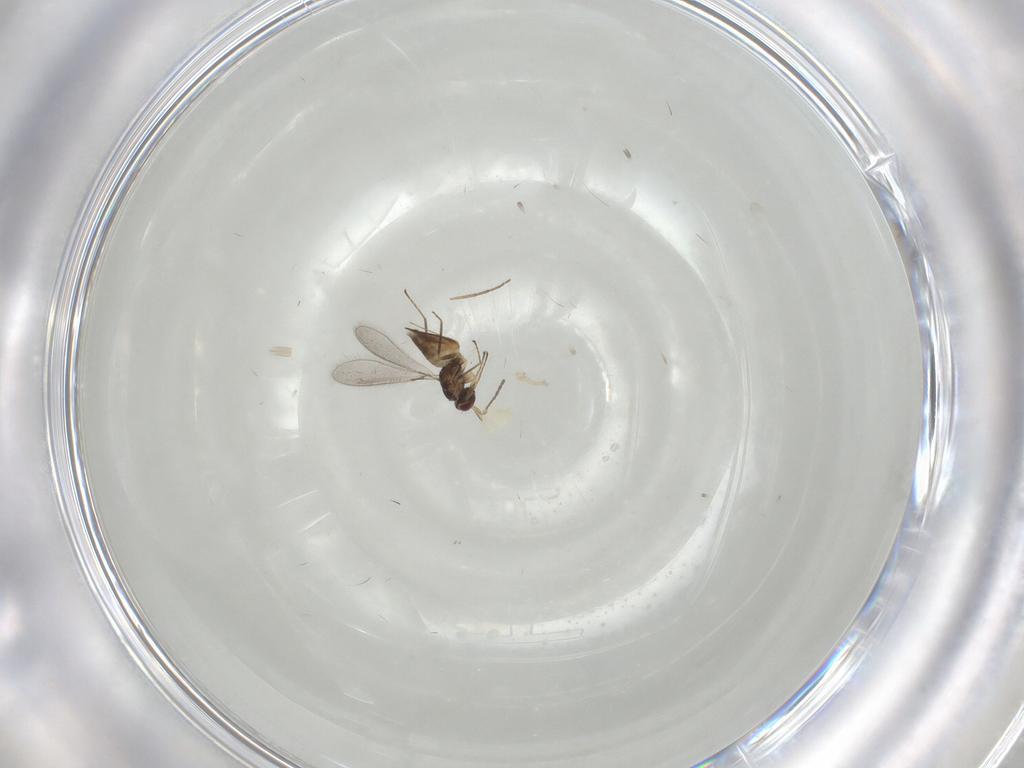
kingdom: Animalia
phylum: Arthropoda
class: Insecta
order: Hymenoptera
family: Mymaridae
